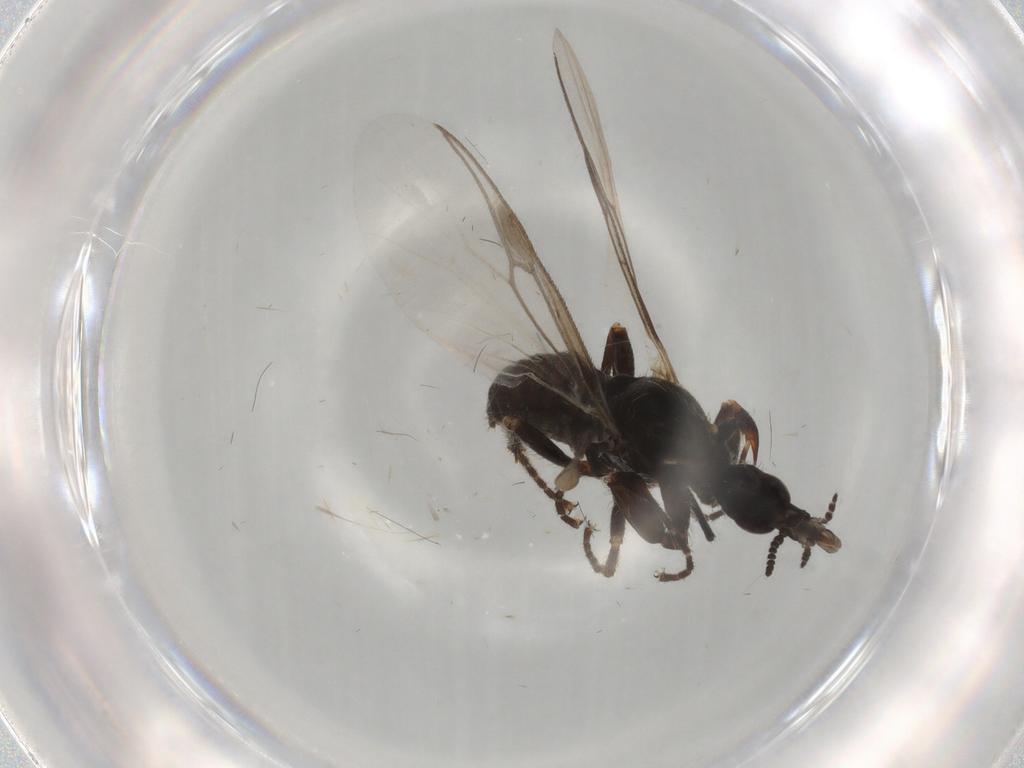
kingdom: Animalia
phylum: Arthropoda
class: Insecta
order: Diptera
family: Bibionidae
